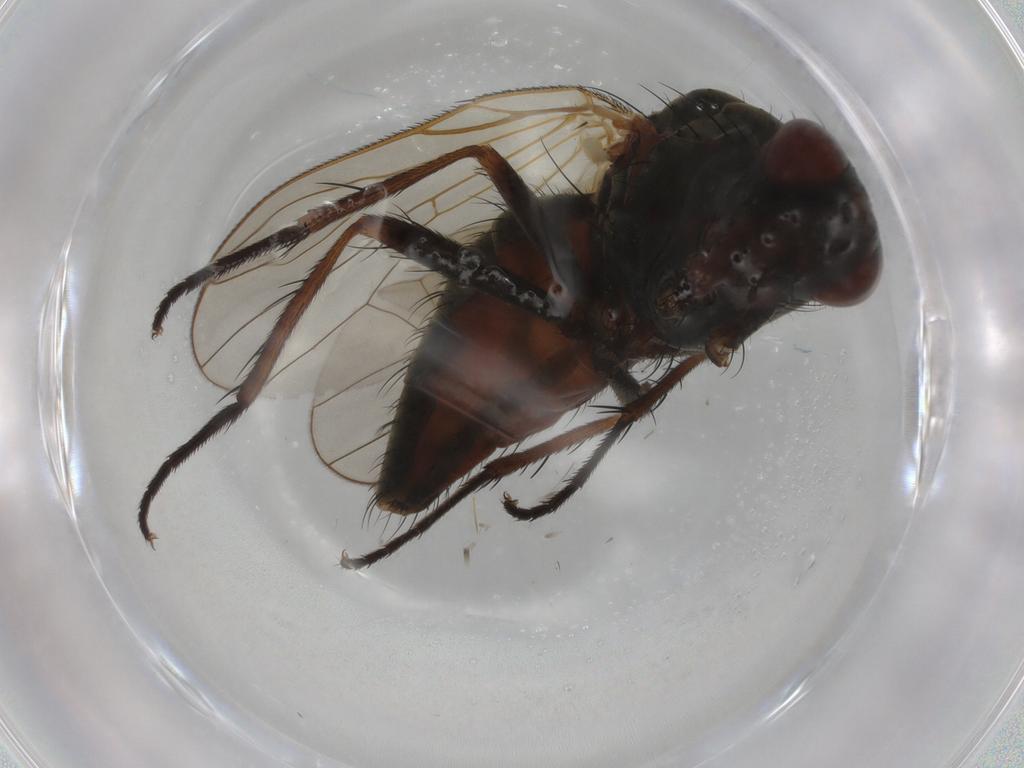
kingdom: Animalia
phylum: Arthropoda
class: Insecta
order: Diptera
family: Anthomyiidae
